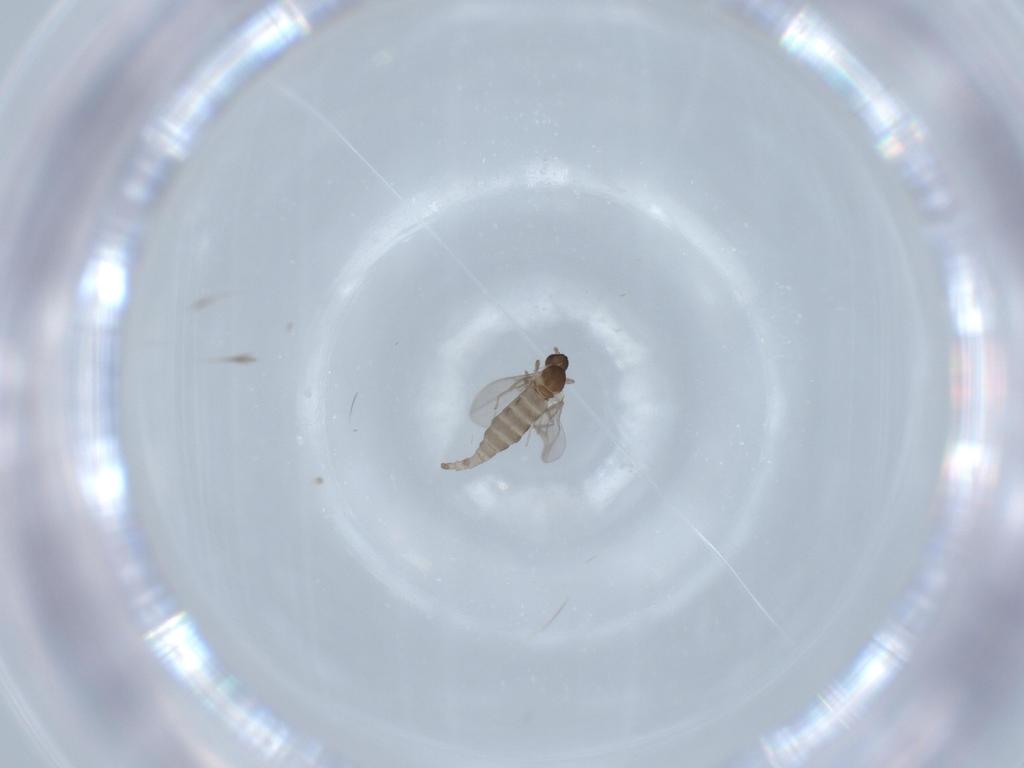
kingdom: Animalia
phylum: Arthropoda
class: Insecta
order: Diptera
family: Cecidomyiidae
